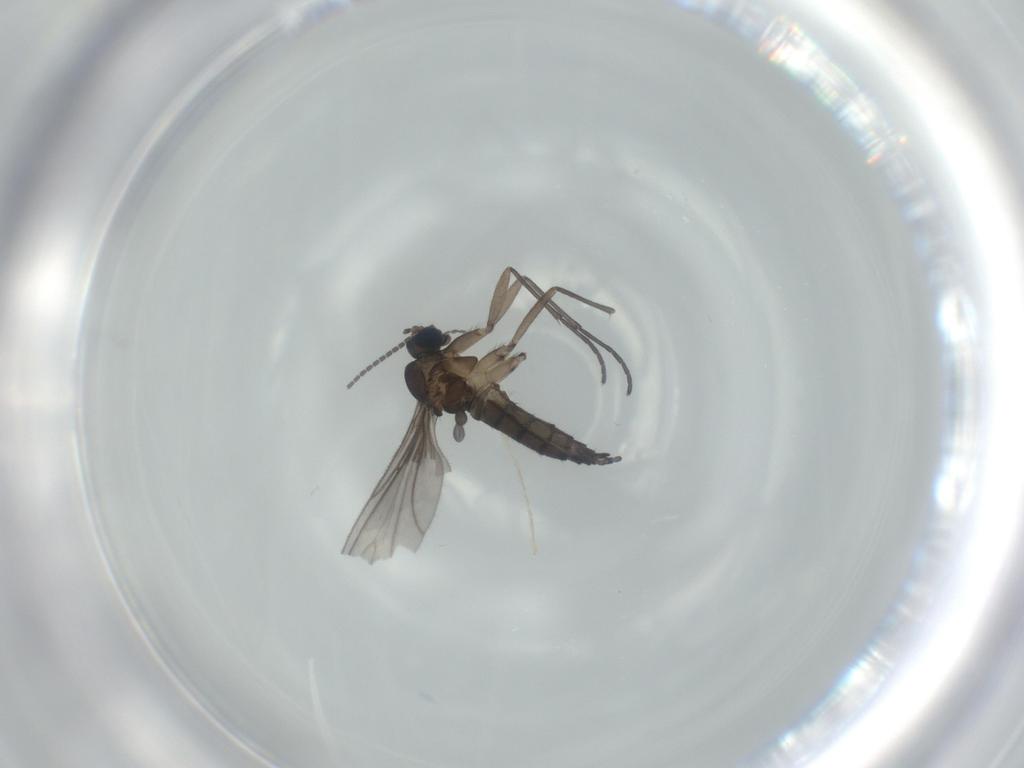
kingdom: Animalia
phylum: Arthropoda
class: Insecta
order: Diptera
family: Sciaridae
